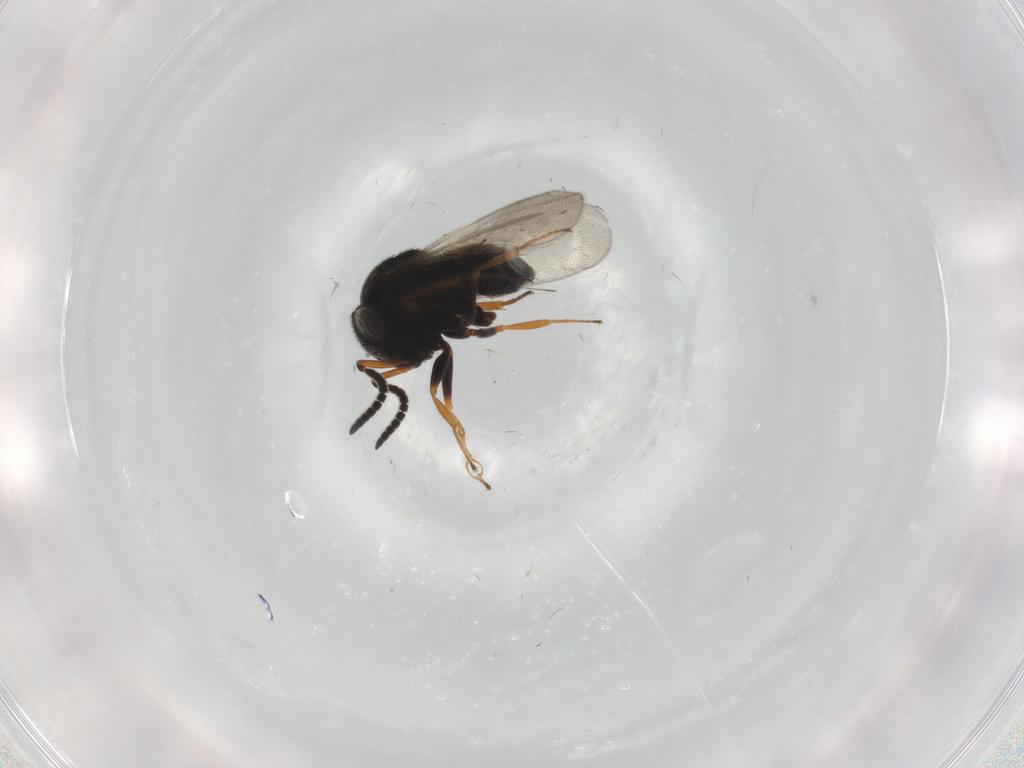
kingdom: Animalia
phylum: Arthropoda
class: Insecta
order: Hymenoptera
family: Scelionidae
